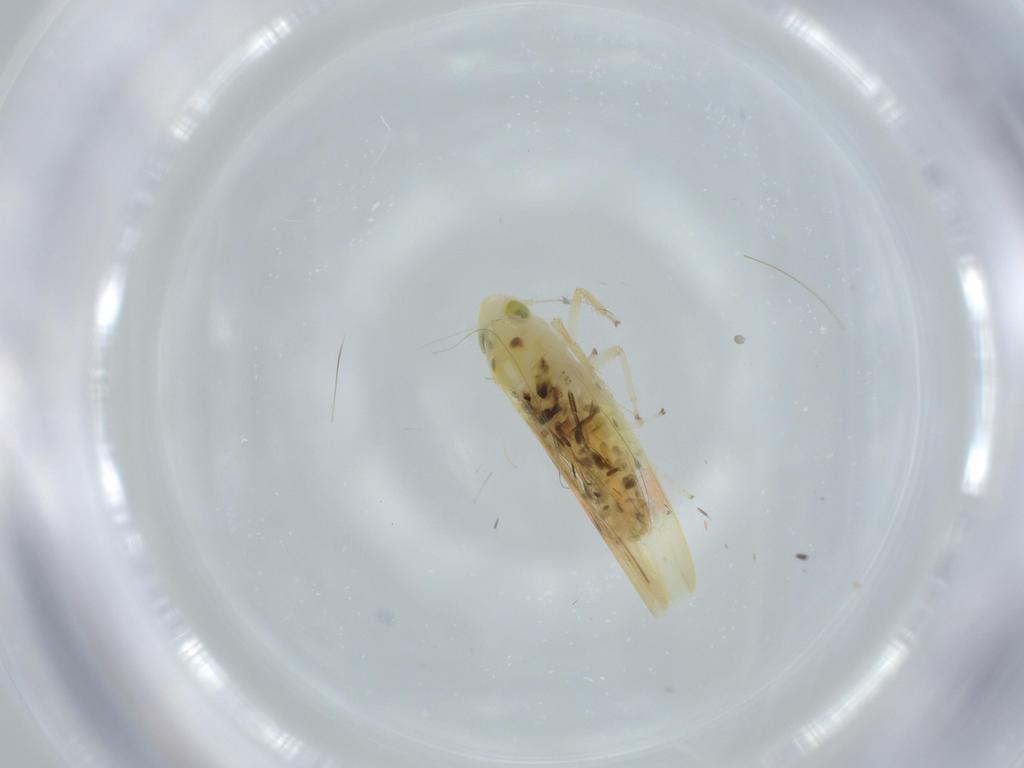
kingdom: Animalia
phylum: Arthropoda
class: Insecta
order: Hemiptera
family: Cicadellidae
